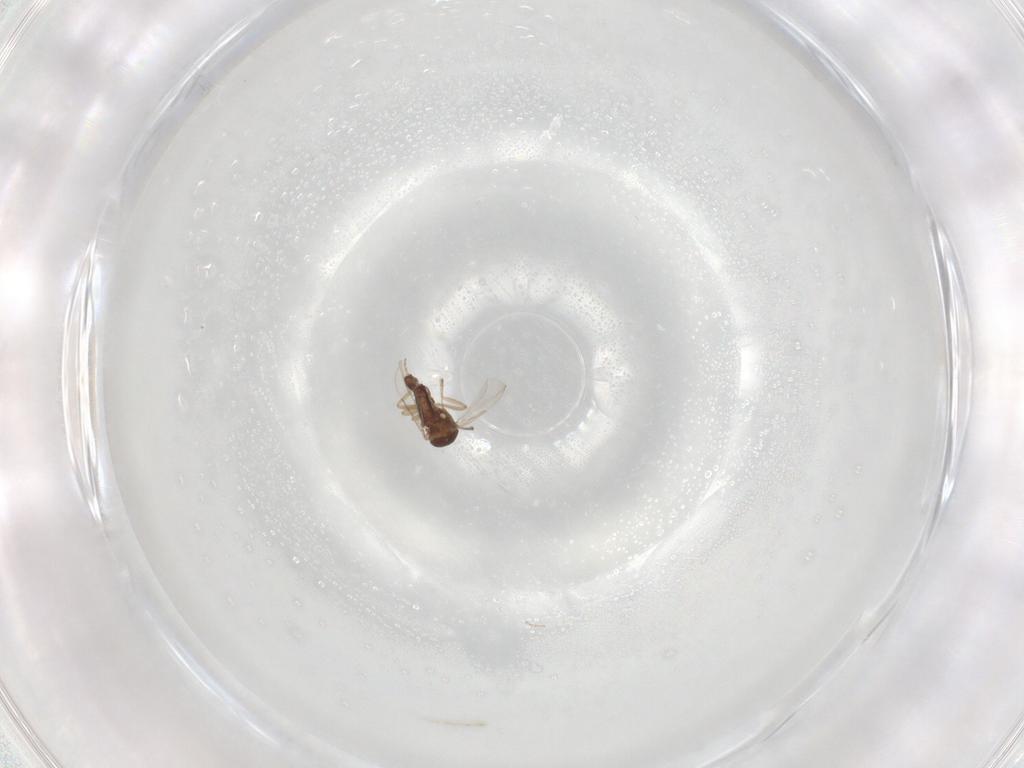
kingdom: Animalia
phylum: Arthropoda
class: Insecta
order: Diptera
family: Ceratopogonidae
